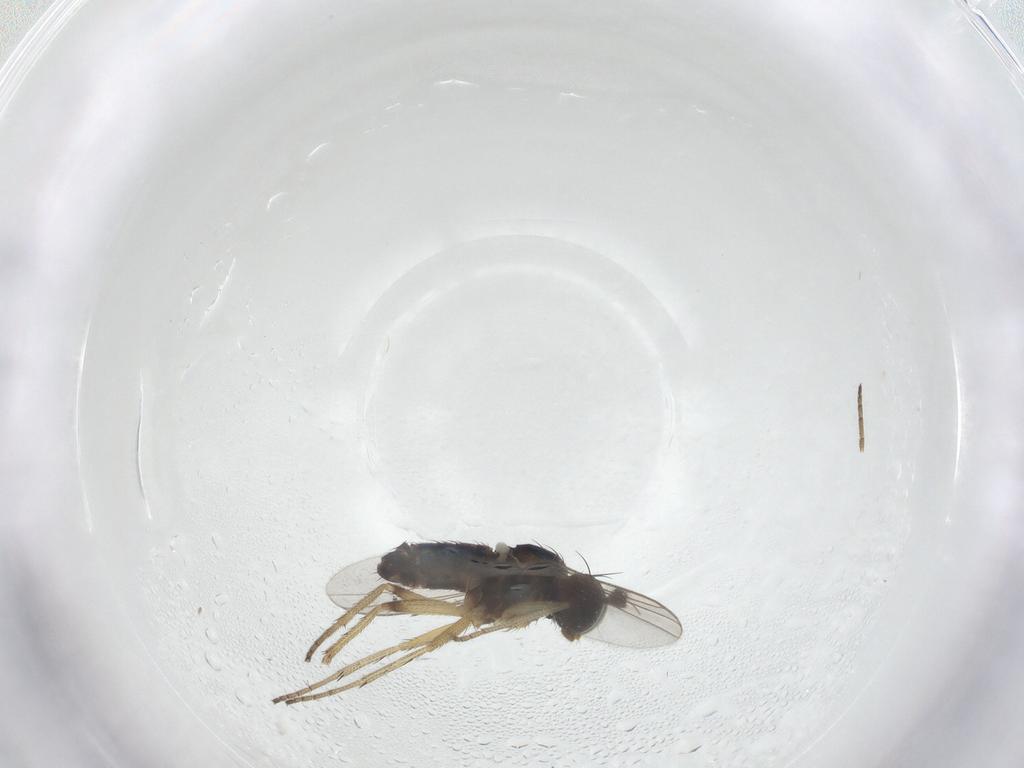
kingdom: Animalia
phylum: Arthropoda
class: Insecta
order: Diptera
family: Dolichopodidae
